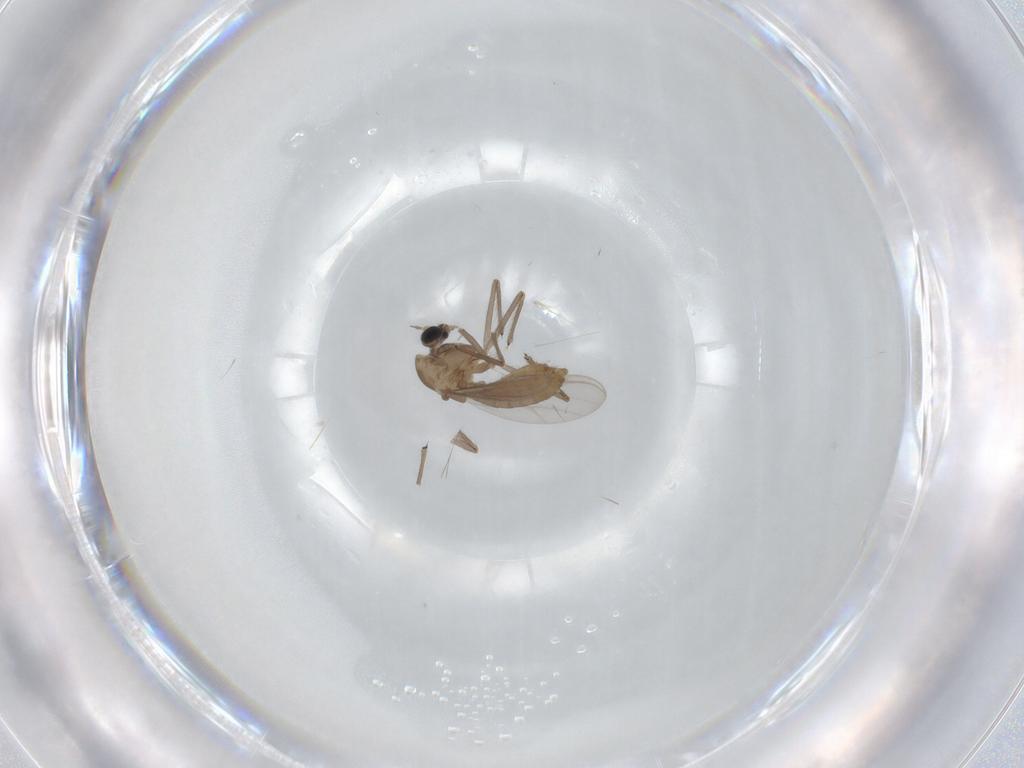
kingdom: Animalia
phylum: Arthropoda
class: Insecta
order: Diptera
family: Chironomidae
